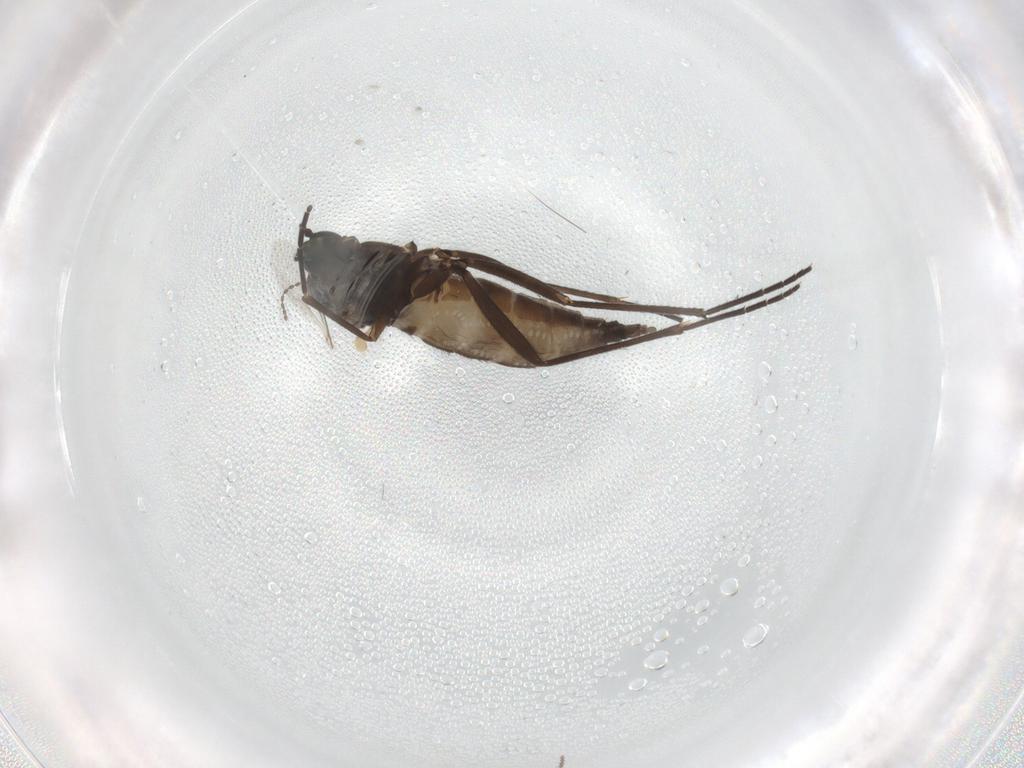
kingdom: Animalia
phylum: Arthropoda
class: Insecta
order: Diptera
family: Sciaridae
